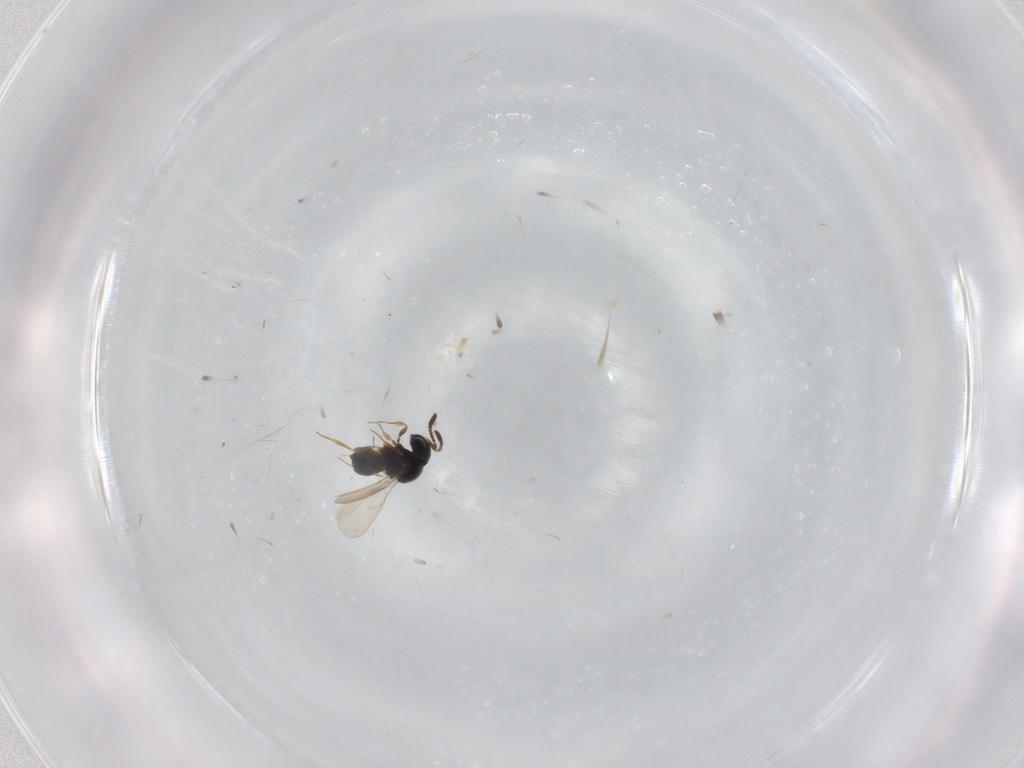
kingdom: Animalia
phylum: Arthropoda
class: Insecta
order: Hymenoptera
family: Scelionidae
